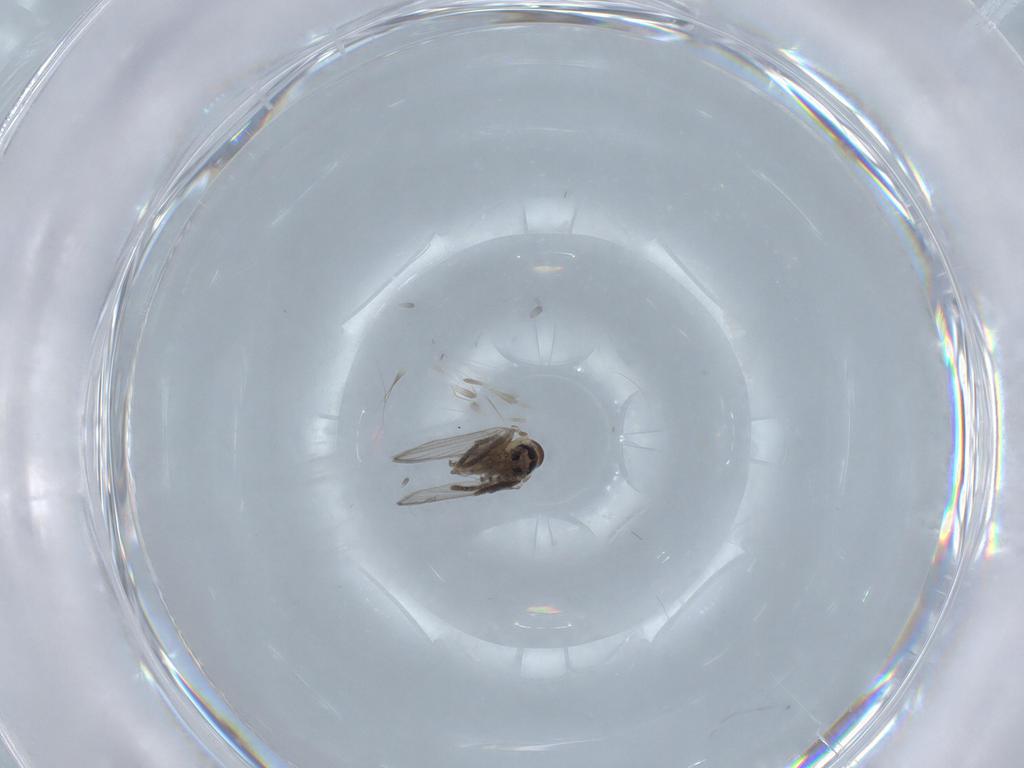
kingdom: Animalia
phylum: Arthropoda
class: Insecta
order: Diptera
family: Psychodidae
